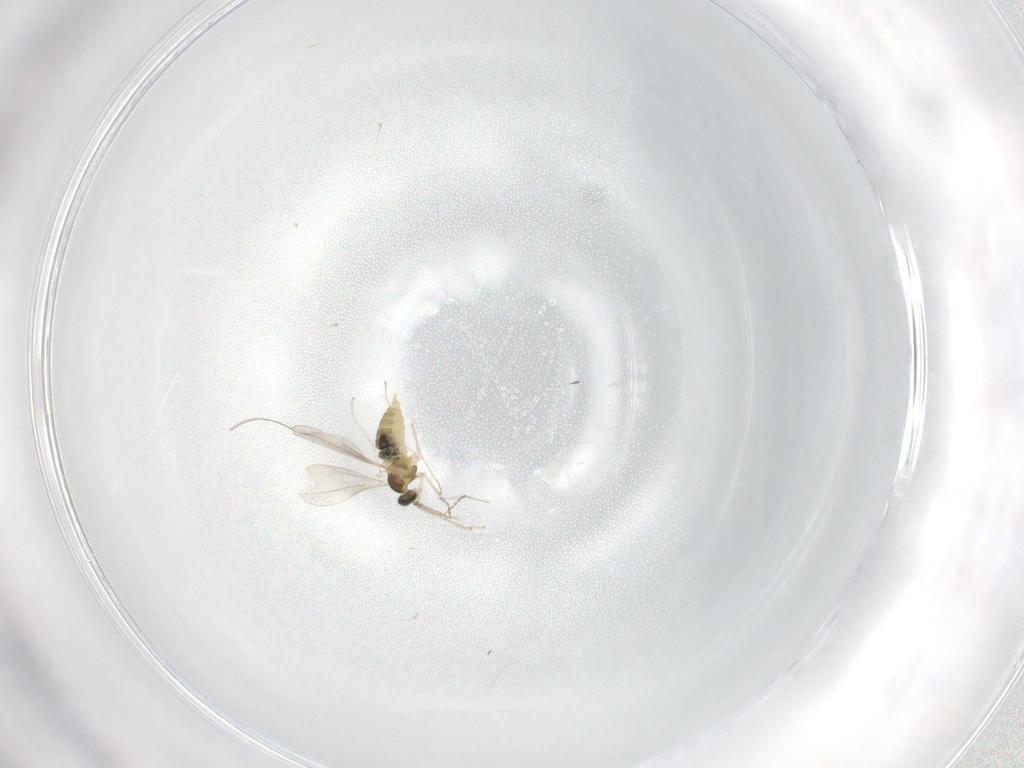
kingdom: Animalia
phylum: Arthropoda
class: Insecta
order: Diptera
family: Cecidomyiidae
